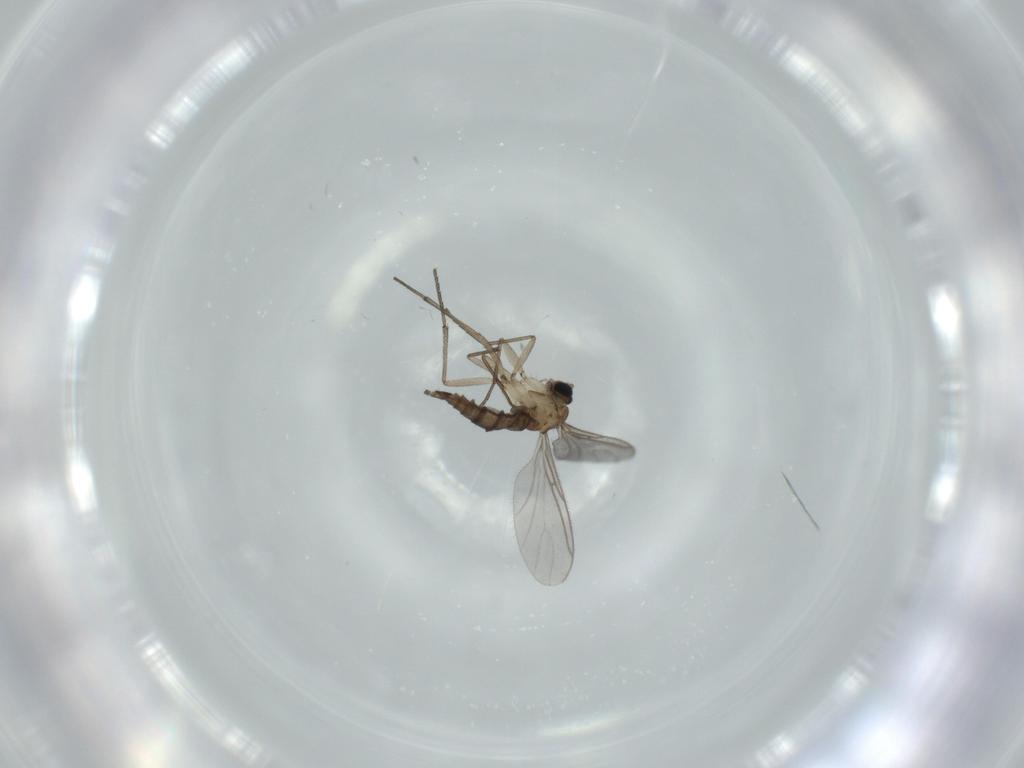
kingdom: Animalia
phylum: Arthropoda
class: Insecta
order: Diptera
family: Sciaridae
